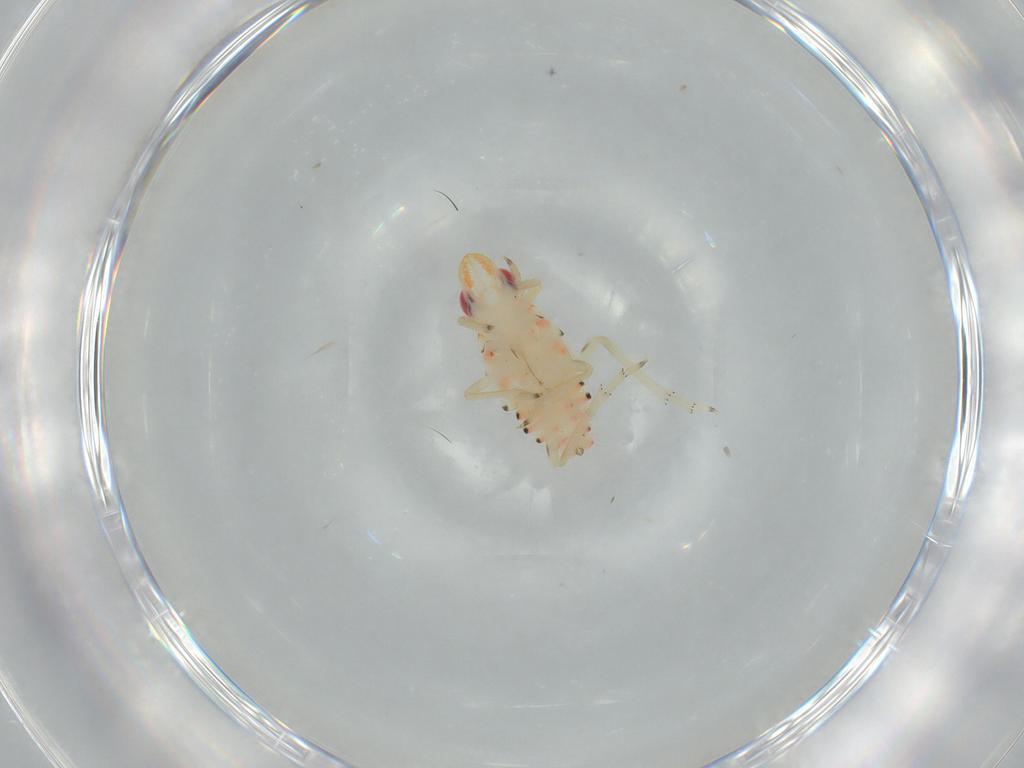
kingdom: Animalia
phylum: Arthropoda
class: Insecta
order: Hemiptera
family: Tropiduchidae
